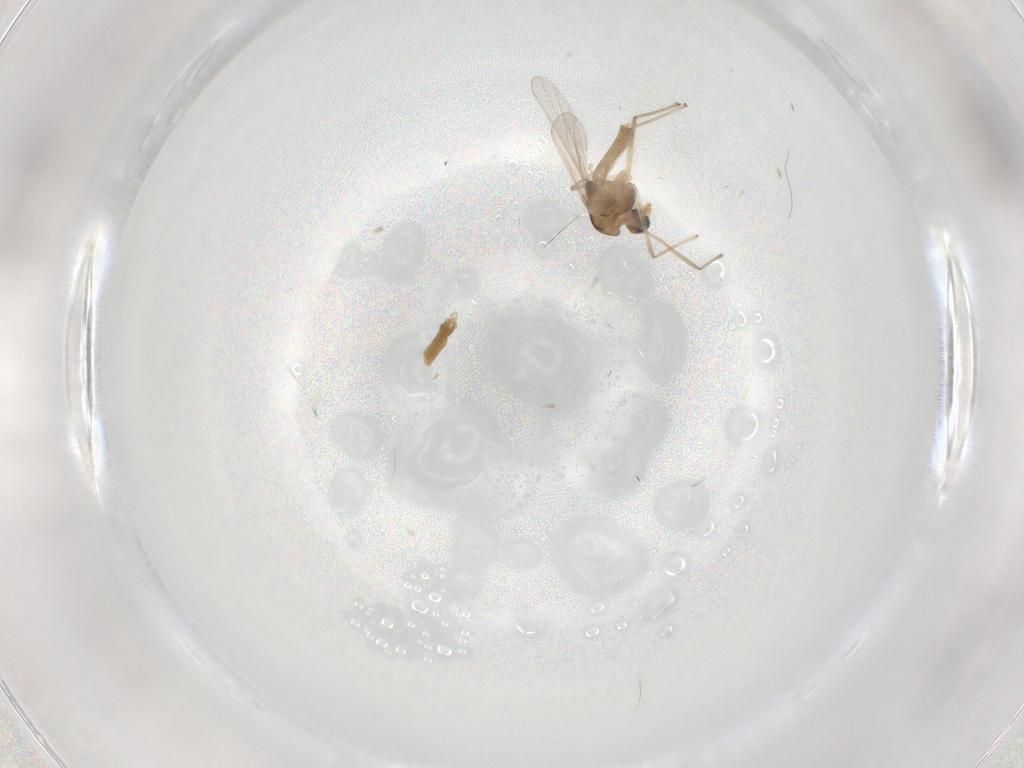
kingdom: Animalia
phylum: Arthropoda
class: Insecta
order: Diptera
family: Chironomidae
